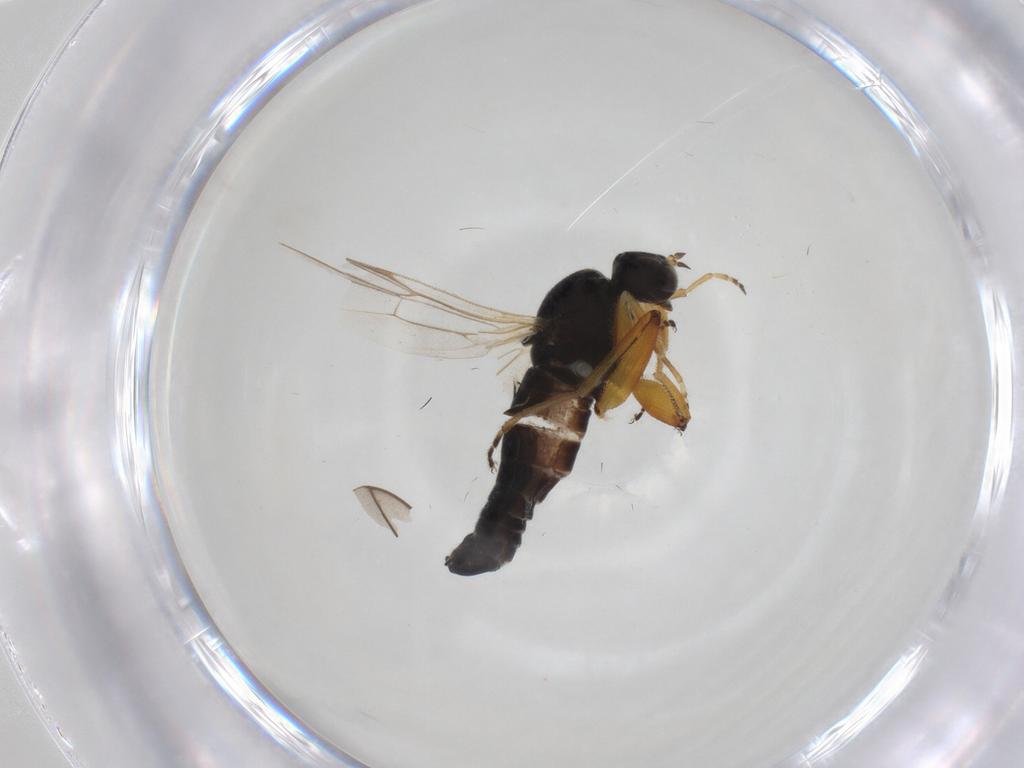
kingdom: Animalia
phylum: Arthropoda
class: Insecta
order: Diptera
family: Hybotidae
